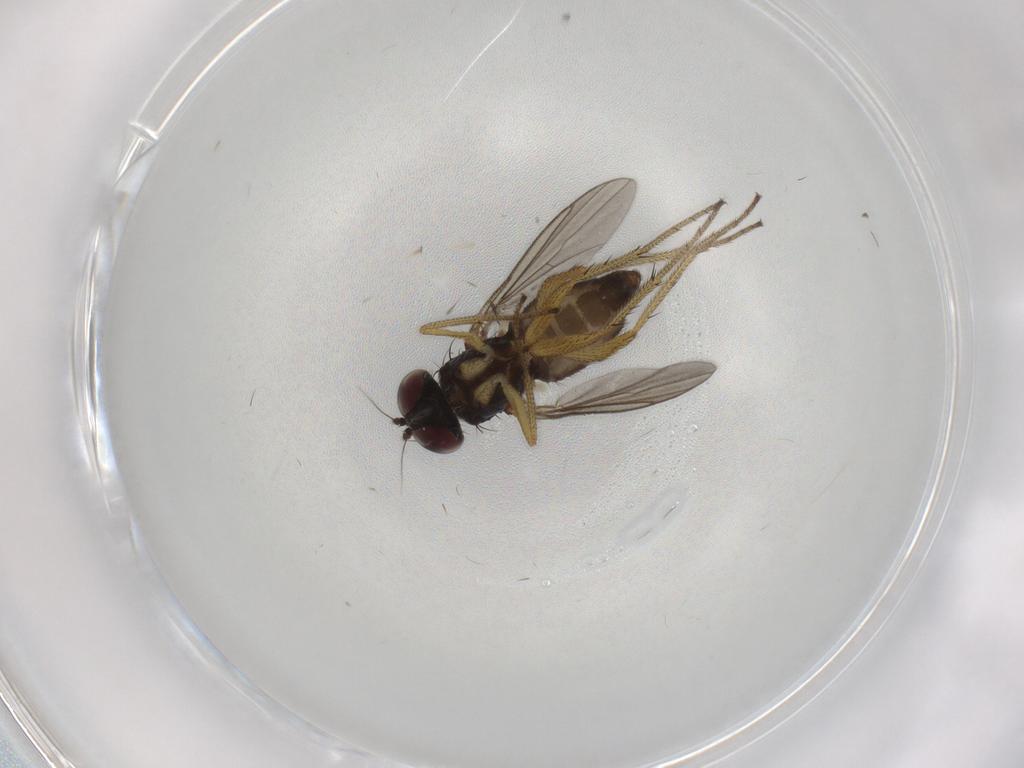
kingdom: Animalia
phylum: Arthropoda
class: Insecta
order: Diptera
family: Dolichopodidae
